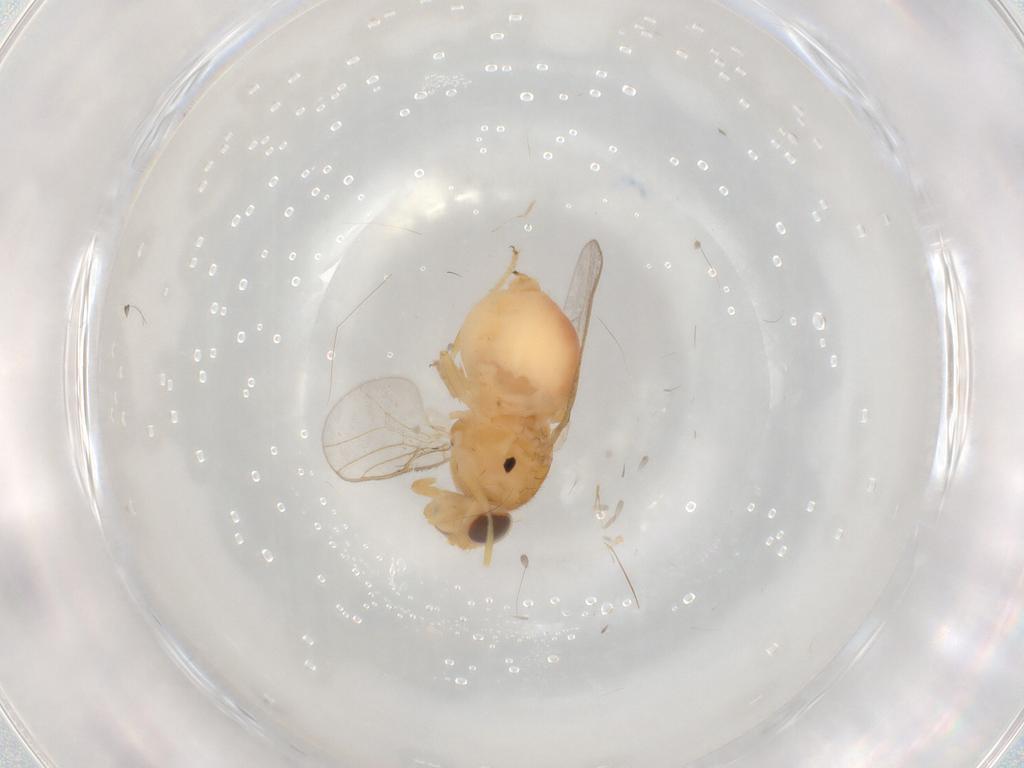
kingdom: Animalia
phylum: Arthropoda
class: Insecta
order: Diptera
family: Chloropidae
